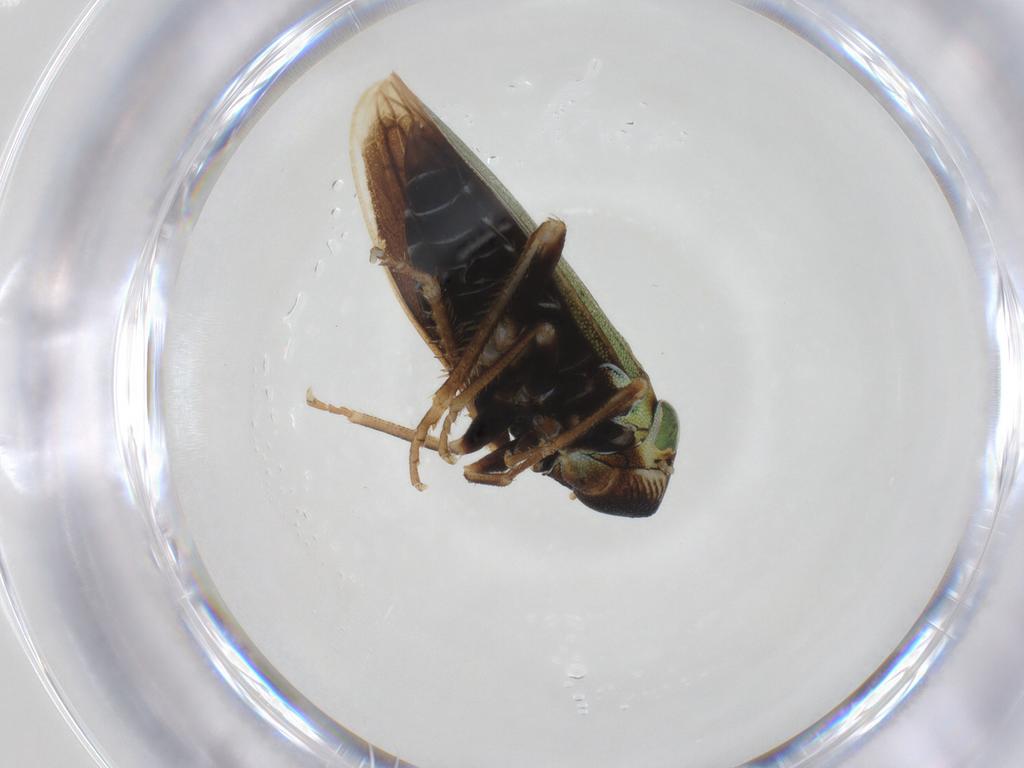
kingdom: Animalia
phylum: Arthropoda
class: Insecta
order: Hemiptera
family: Cicadellidae
